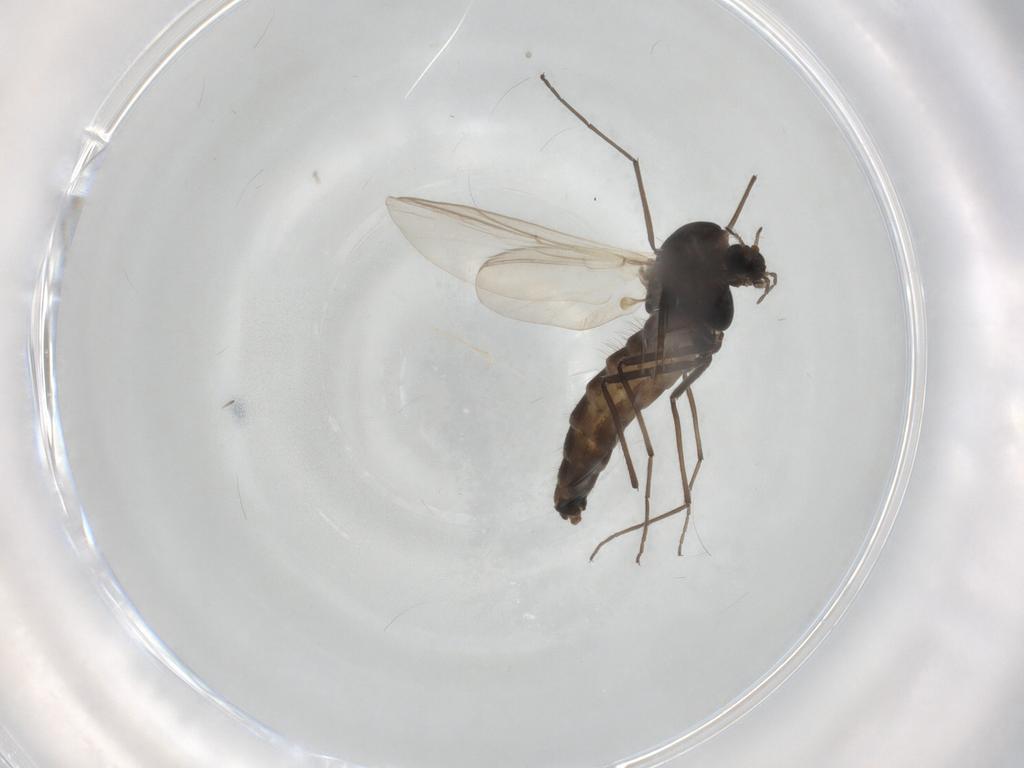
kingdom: Animalia
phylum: Arthropoda
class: Insecta
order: Diptera
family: Chironomidae
